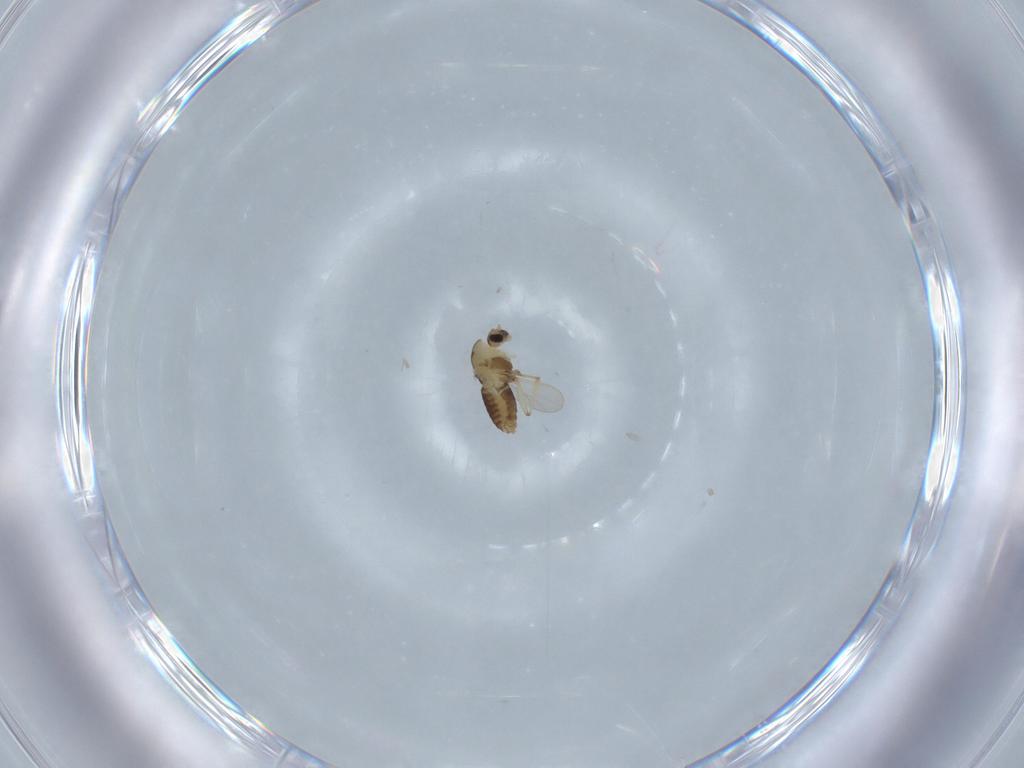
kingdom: Animalia
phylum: Arthropoda
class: Insecta
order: Diptera
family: Chironomidae
